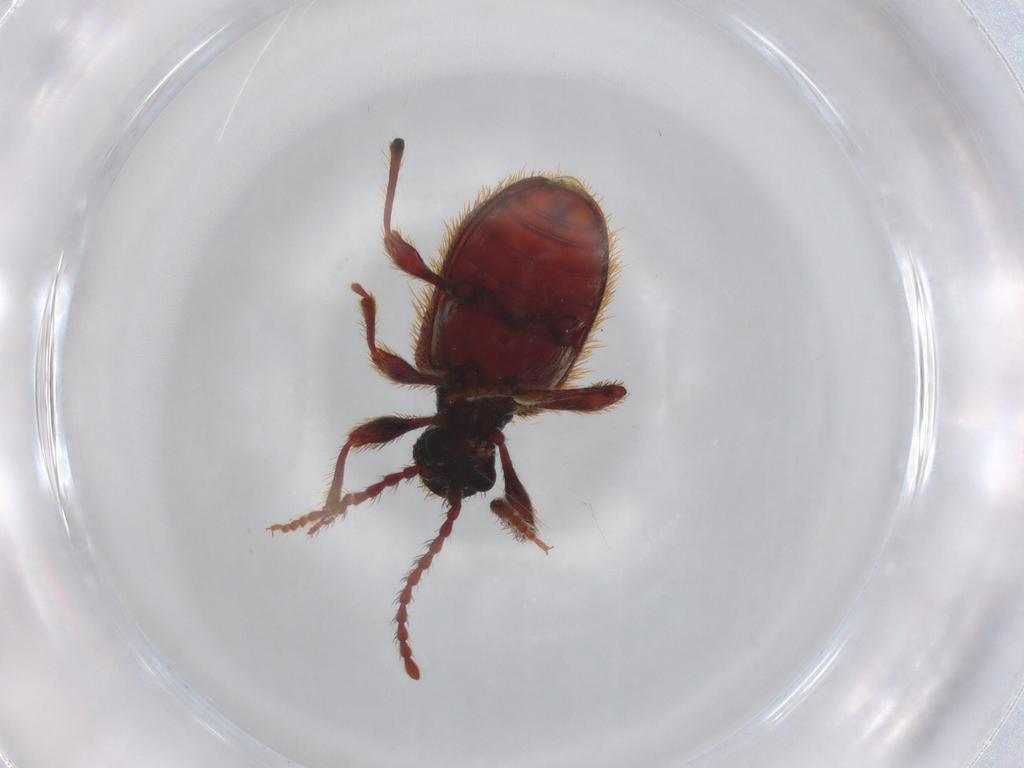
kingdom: Animalia
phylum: Arthropoda
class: Insecta
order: Coleoptera
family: Ptinidae
